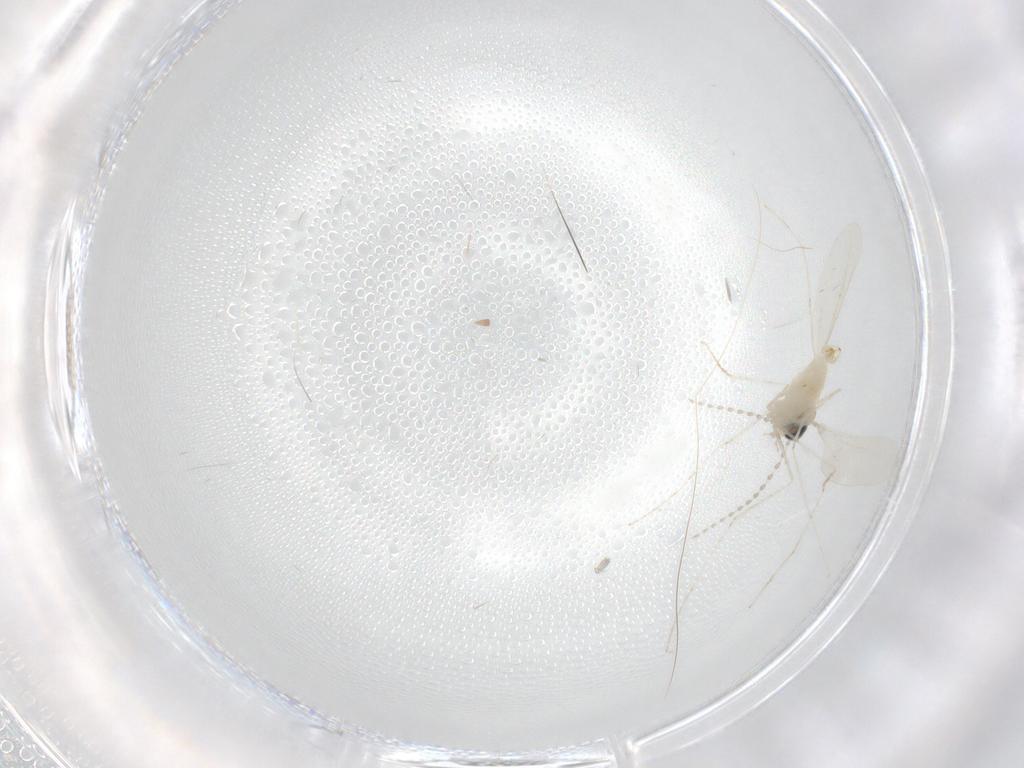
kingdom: Animalia
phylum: Arthropoda
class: Insecta
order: Diptera
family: Cecidomyiidae
